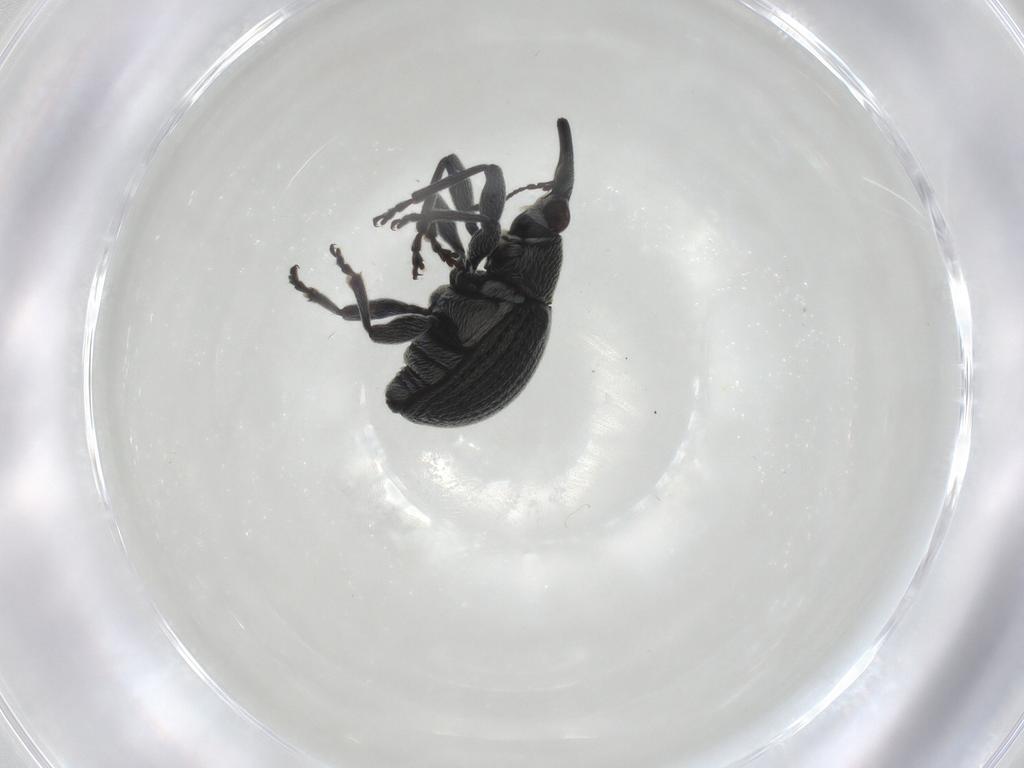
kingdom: Animalia
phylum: Arthropoda
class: Insecta
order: Coleoptera
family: Brentidae
